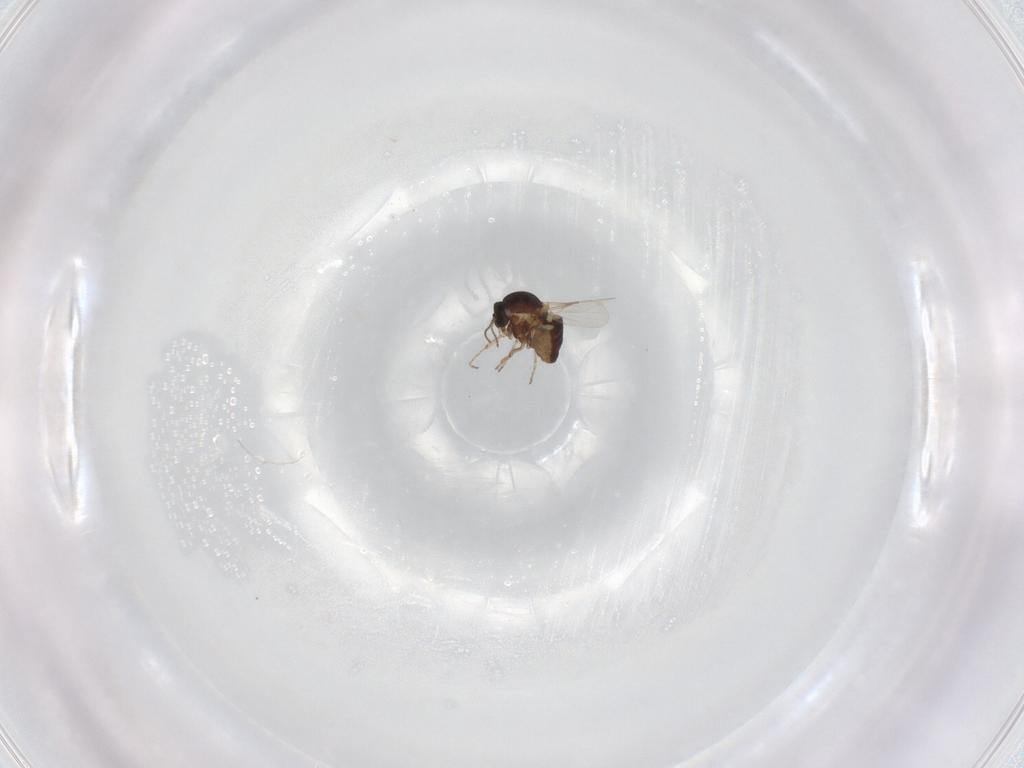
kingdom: Animalia
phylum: Arthropoda
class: Insecta
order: Diptera
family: Ceratopogonidae
